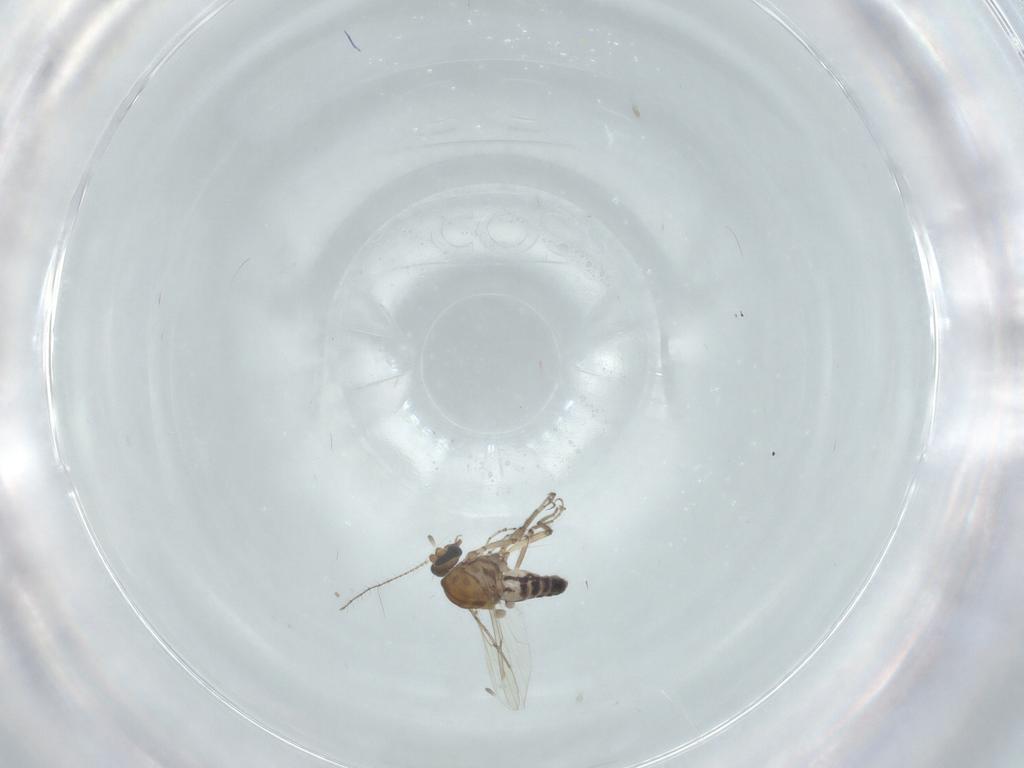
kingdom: Animalia
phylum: Arthropoda
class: Insecta
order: Diptera
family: Ceratopogonidae
